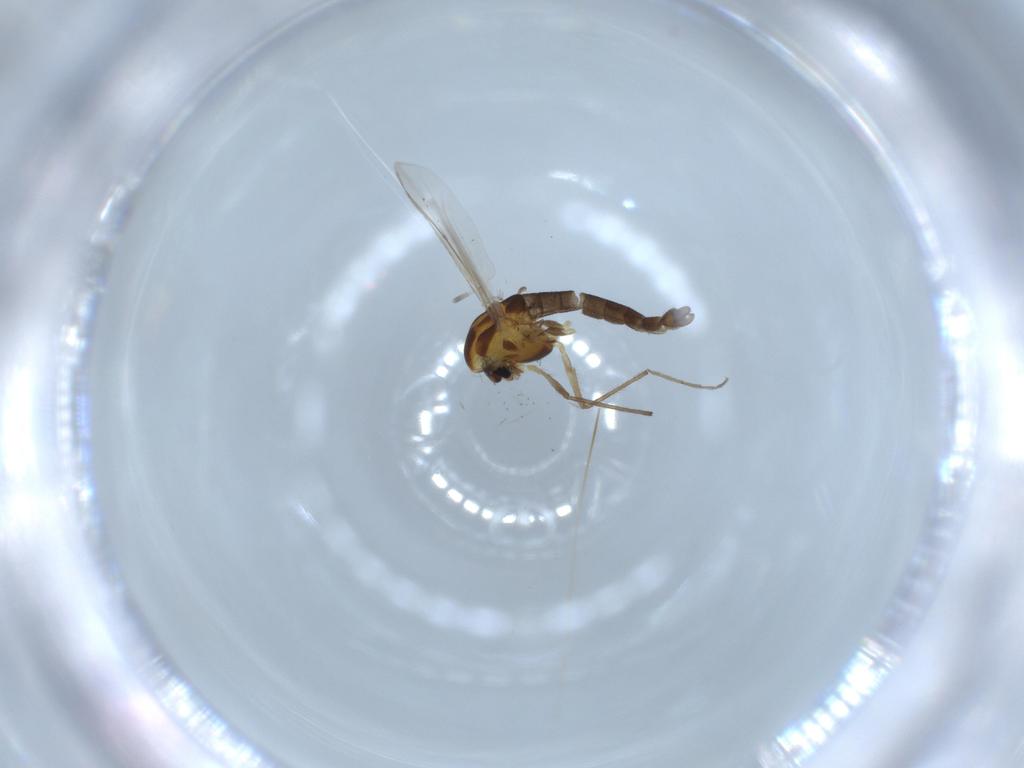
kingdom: Animalia
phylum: Arthropoda
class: Insecta
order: Diptera
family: Chironomidae
